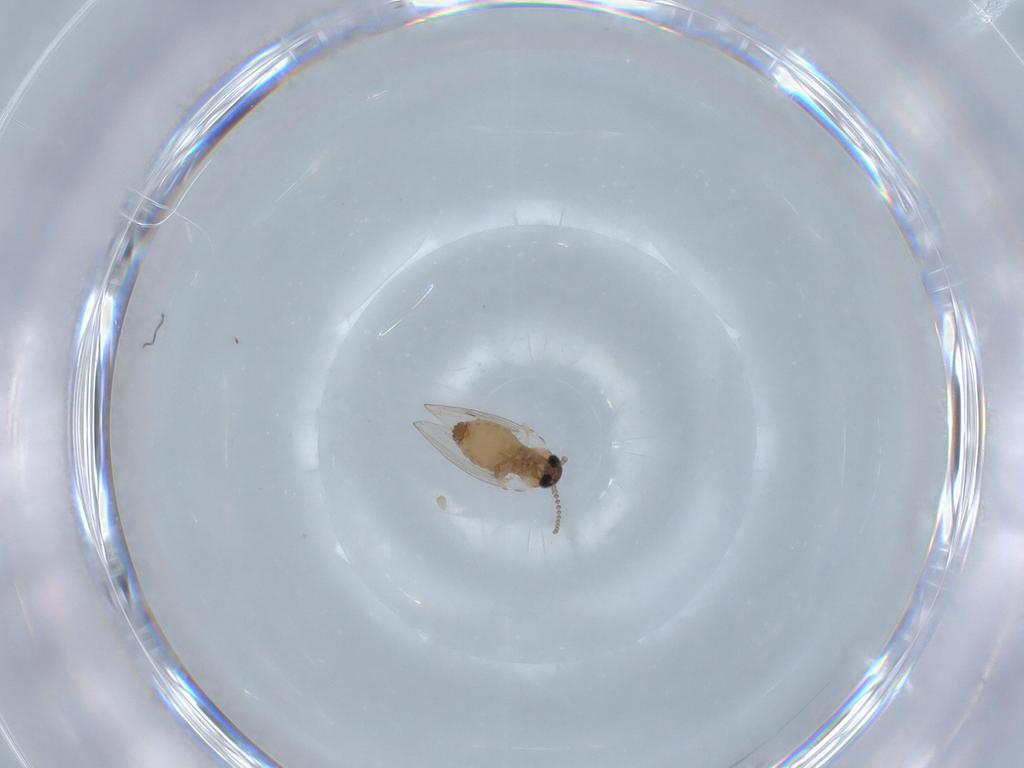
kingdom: Animalia
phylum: Arthropoda
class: Insecta
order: Diptera
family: Psychodidae
